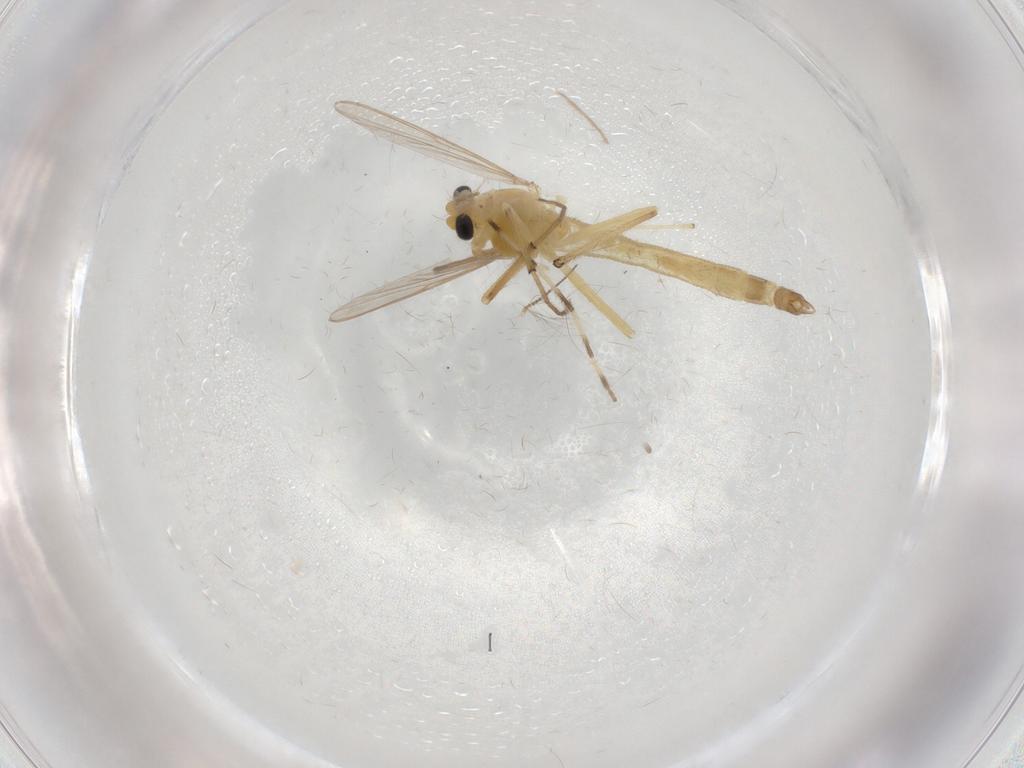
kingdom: Animalia
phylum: Arthropoda
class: Insecta
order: Diptera
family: Chironomidae
